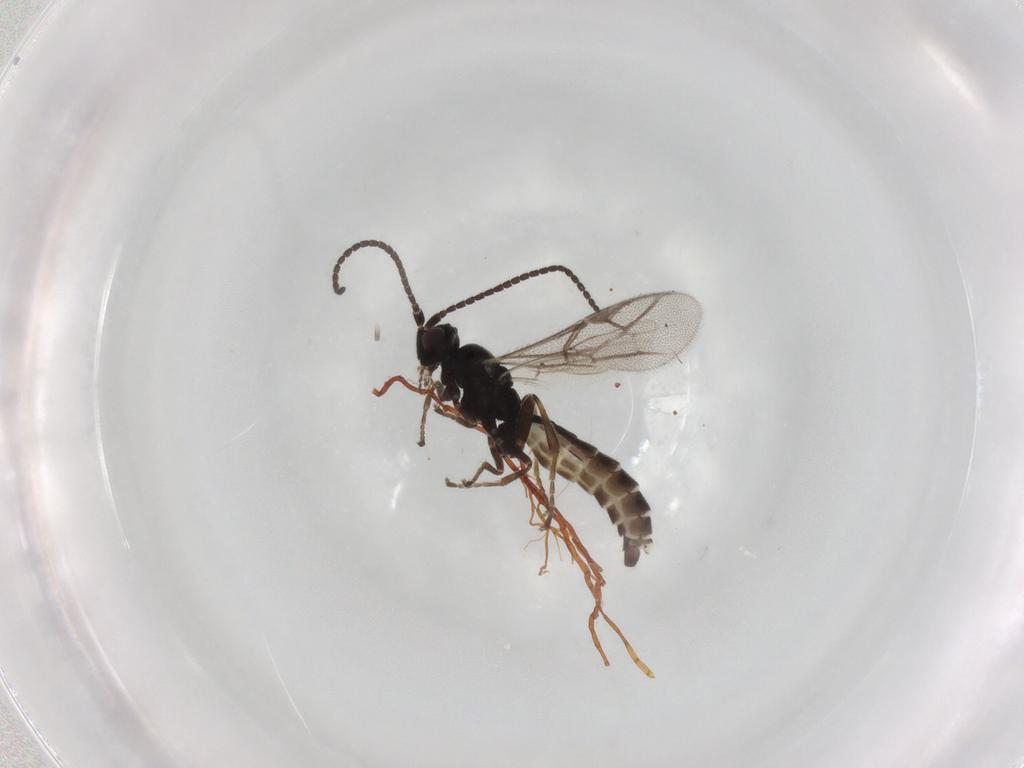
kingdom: Animalia
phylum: Arthropoda
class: Insecta
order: Hymenoptera
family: Ichneumonidae
